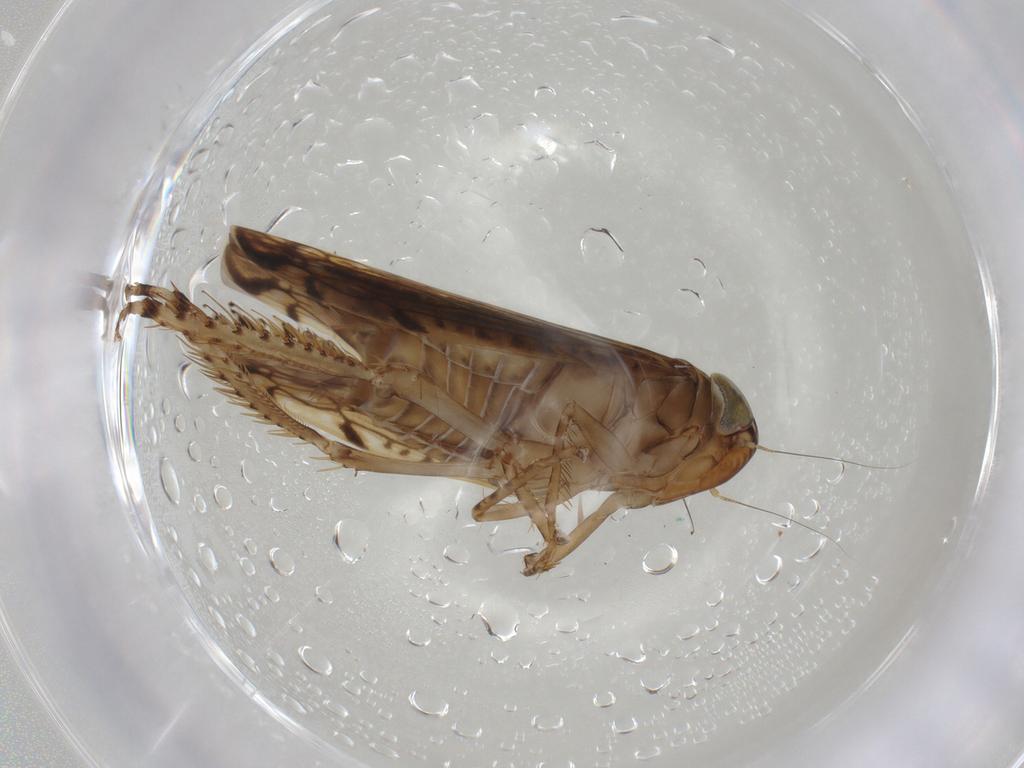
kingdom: Animalia
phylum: Arthropoda
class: Insecta
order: Hemiptera
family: Cicadellidae
